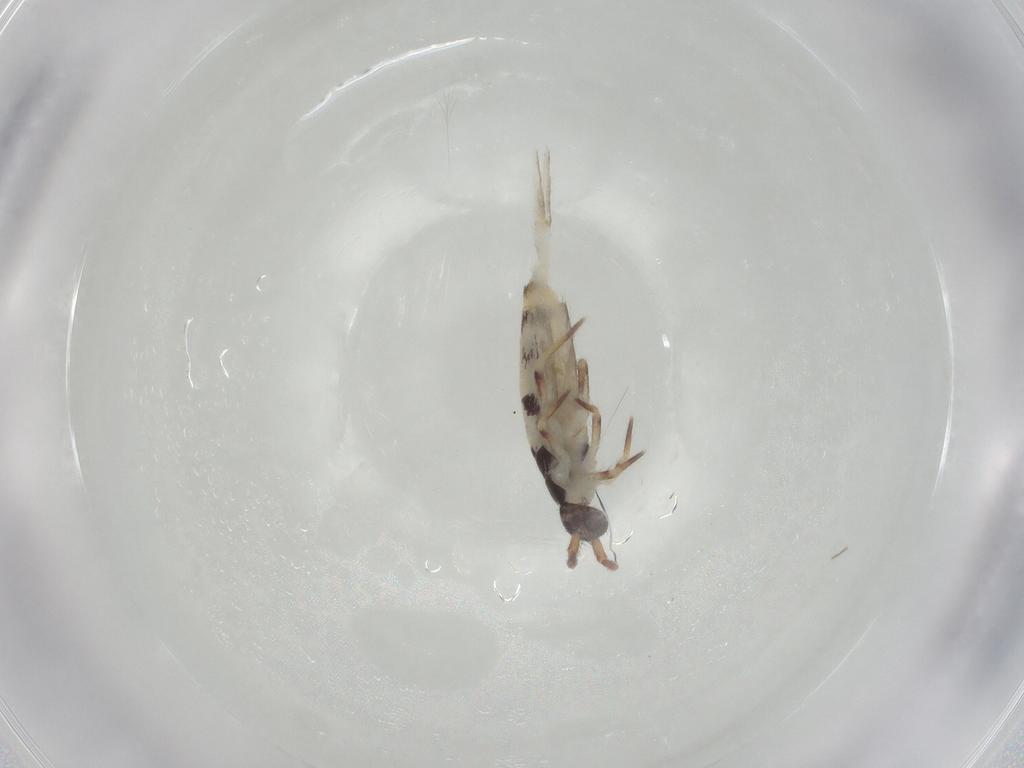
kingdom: Animalia
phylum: Arthropoda
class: Collembola
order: Entomobryomorpha
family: Entomobryidae
